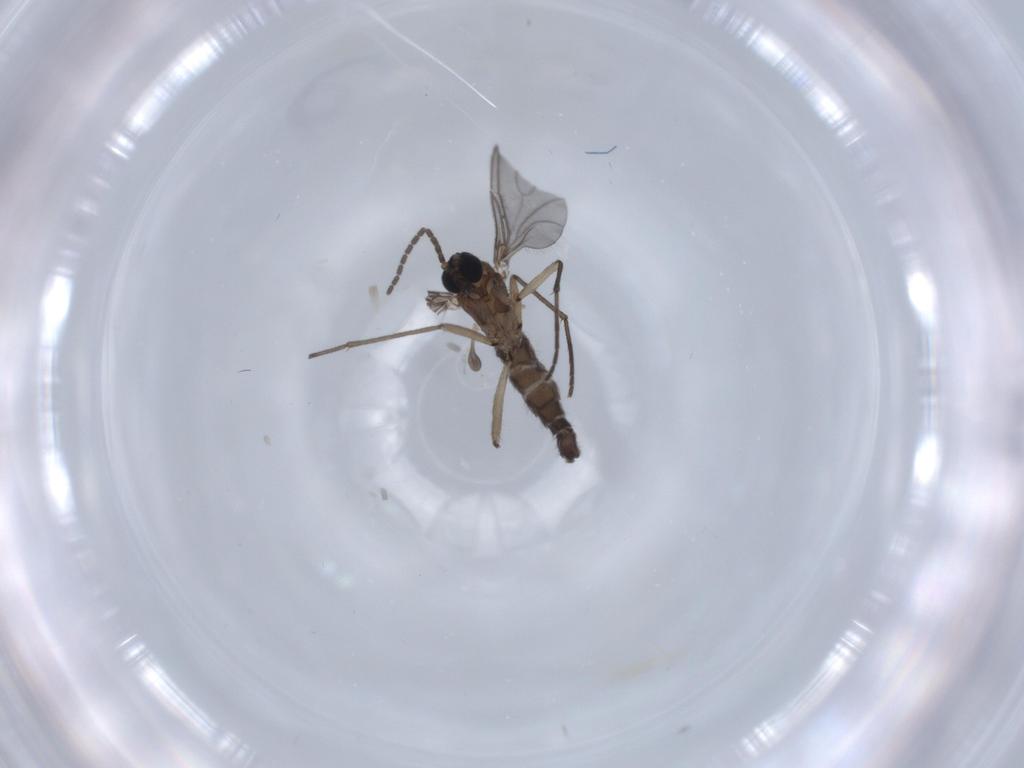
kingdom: Animalia
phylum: Arthropoda
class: Insecta
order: Diptera
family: Sciaridae
